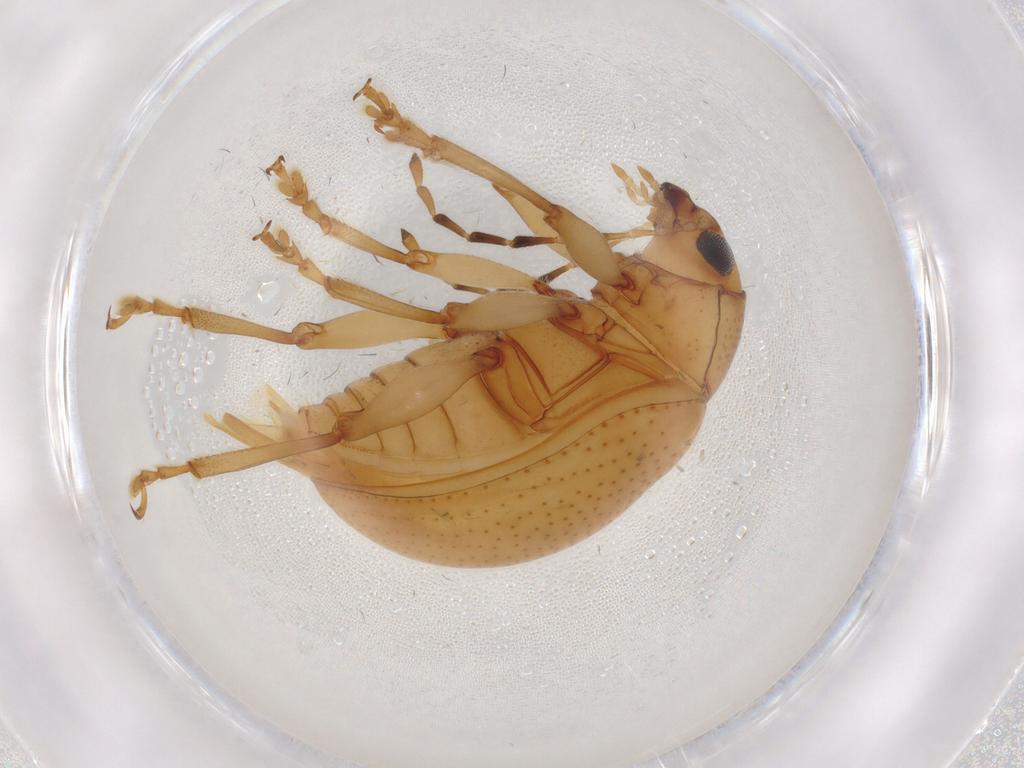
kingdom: Animalia
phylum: Arthropoda
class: Insecta
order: Coleoptera
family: Chrysomelidae
